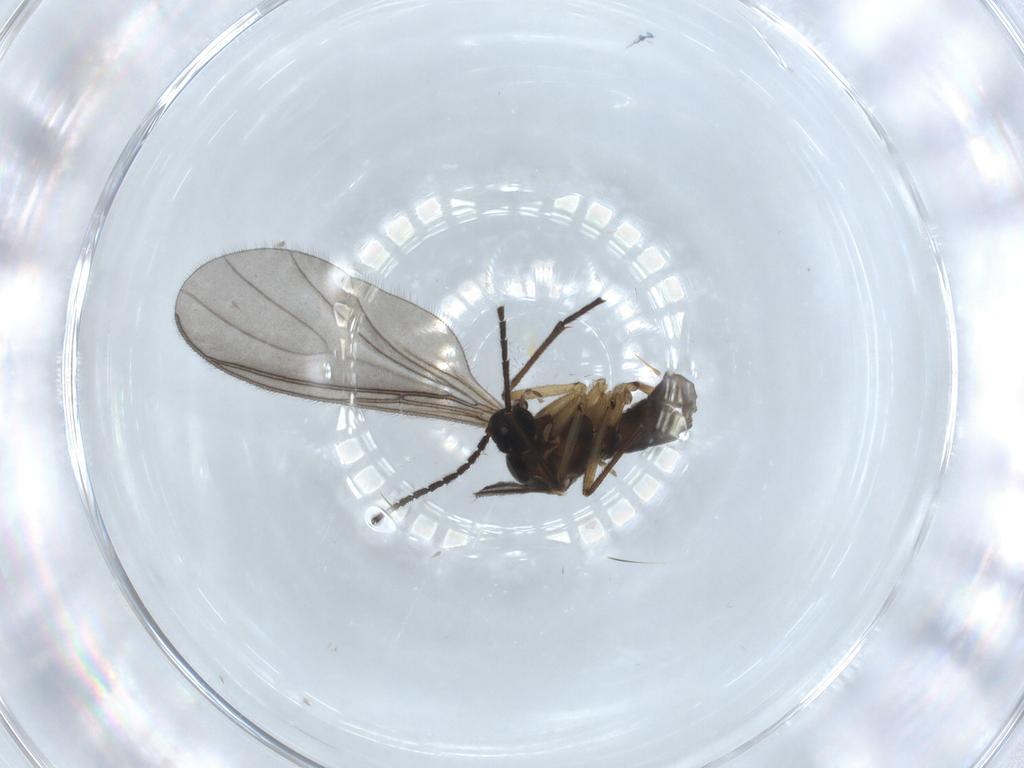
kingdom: Animalia
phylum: Arthropoda
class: Insecta
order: Diptera
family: Sciaridae
